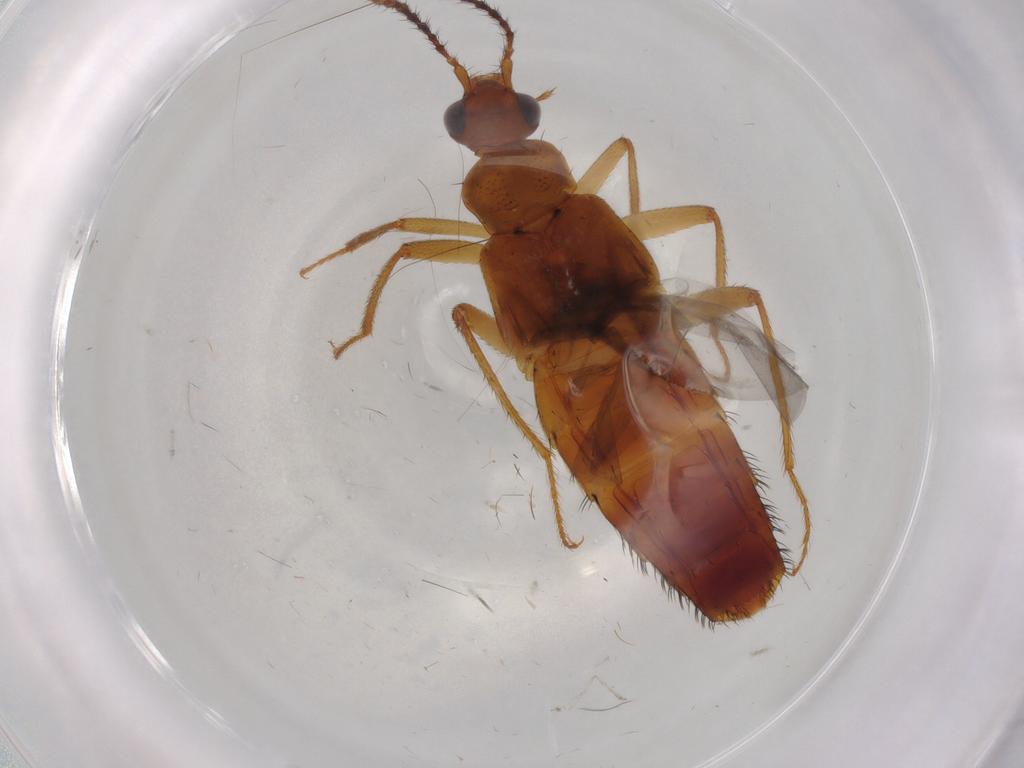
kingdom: Animalia
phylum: Arthropoda
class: Insecta
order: Coleoptera
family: Staphylinidae
